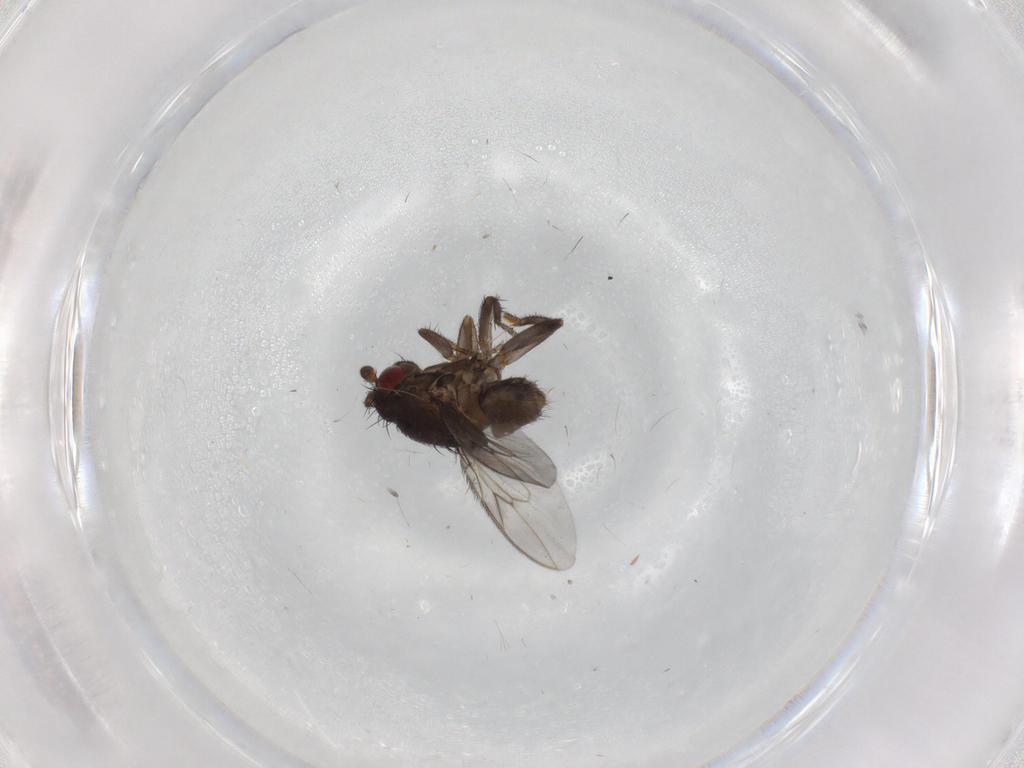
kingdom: Animalia
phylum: Arthropoda
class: Insecta
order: Diptera
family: Sphaeroceridae
